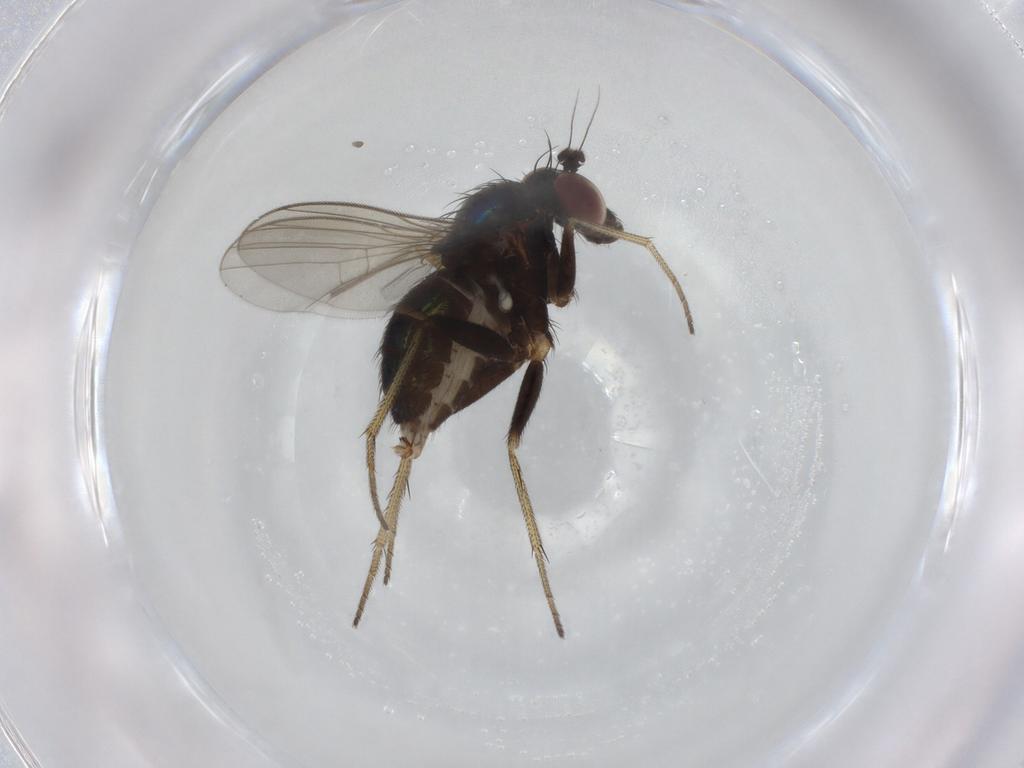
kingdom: Animalia
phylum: Arthropoda
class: Insecta
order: Diptera
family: Dolichopodidae
